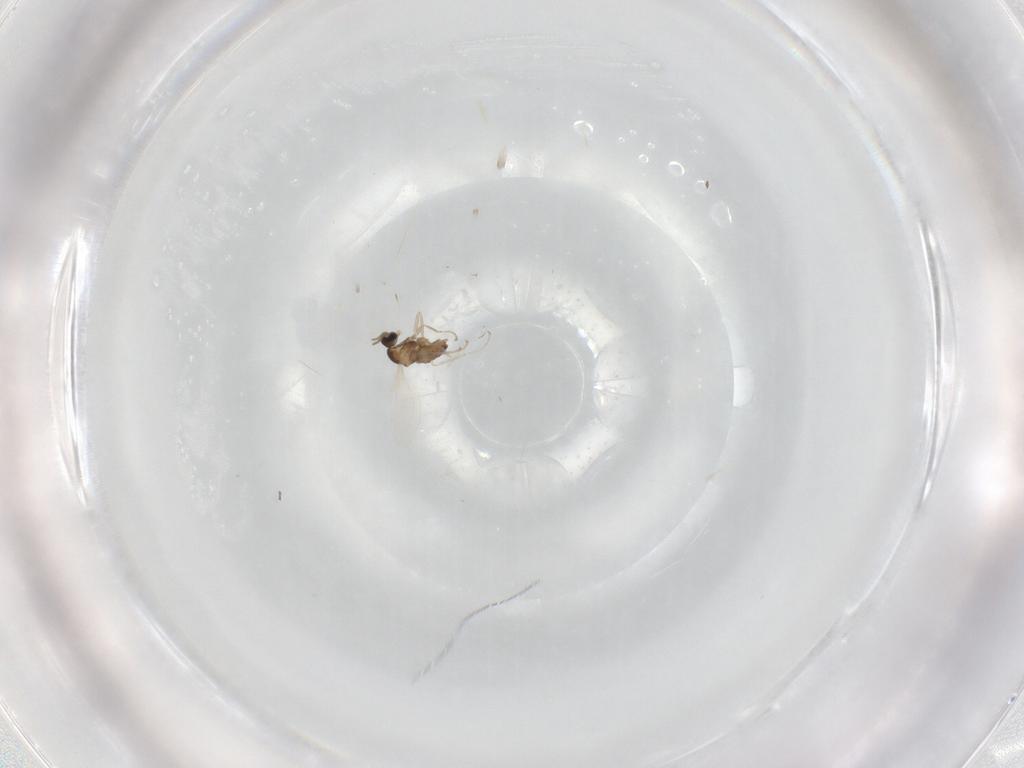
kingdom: Animalia
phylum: Arthropoda
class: Insecta
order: Diptera
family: Cecidomyiidae
